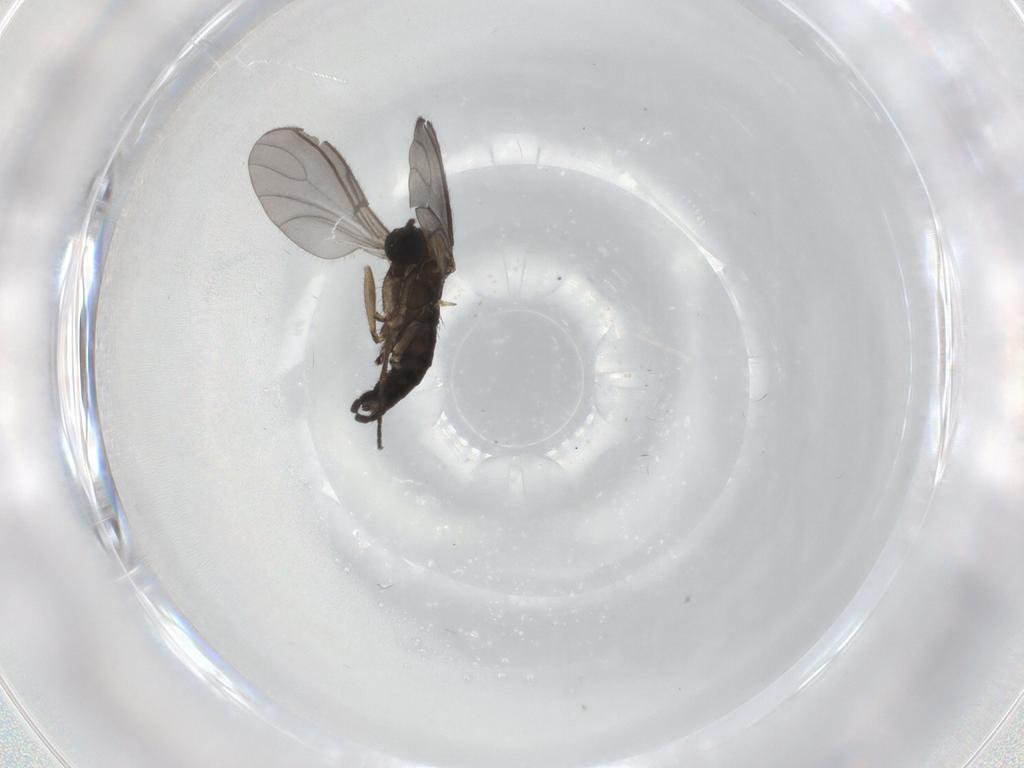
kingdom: Animalia
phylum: Arthropoda
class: Insecta
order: Diptera
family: Sciaridae
